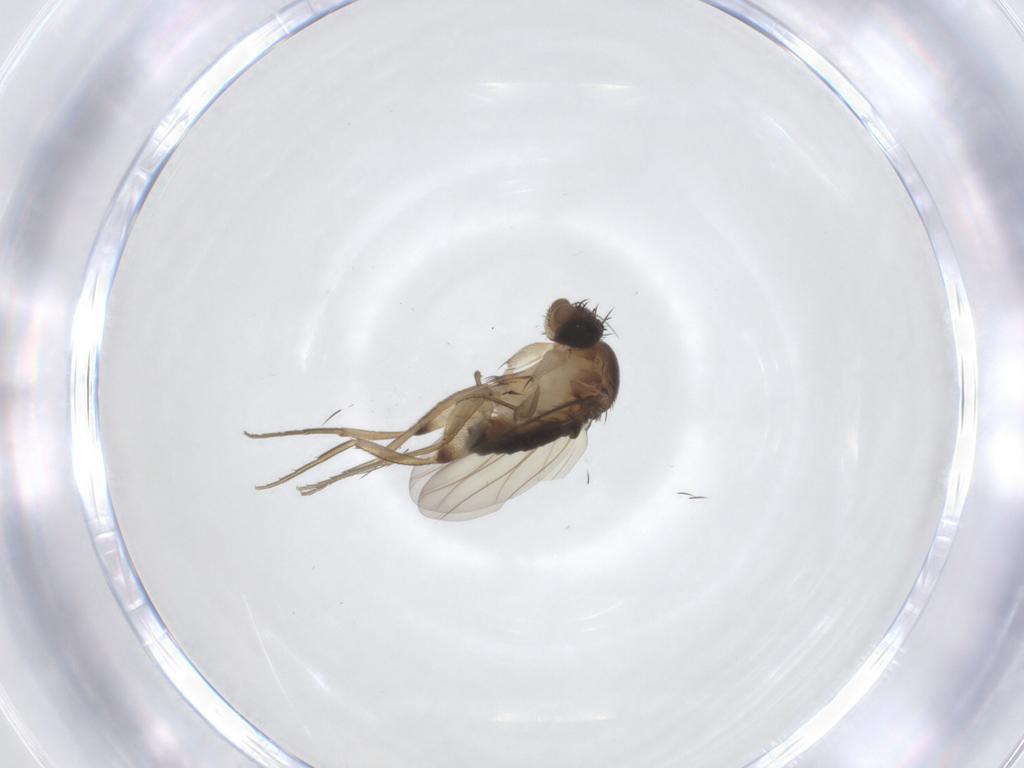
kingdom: Animalia
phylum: Arthropoda
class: Insecta
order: Diptera
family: Phoridae
